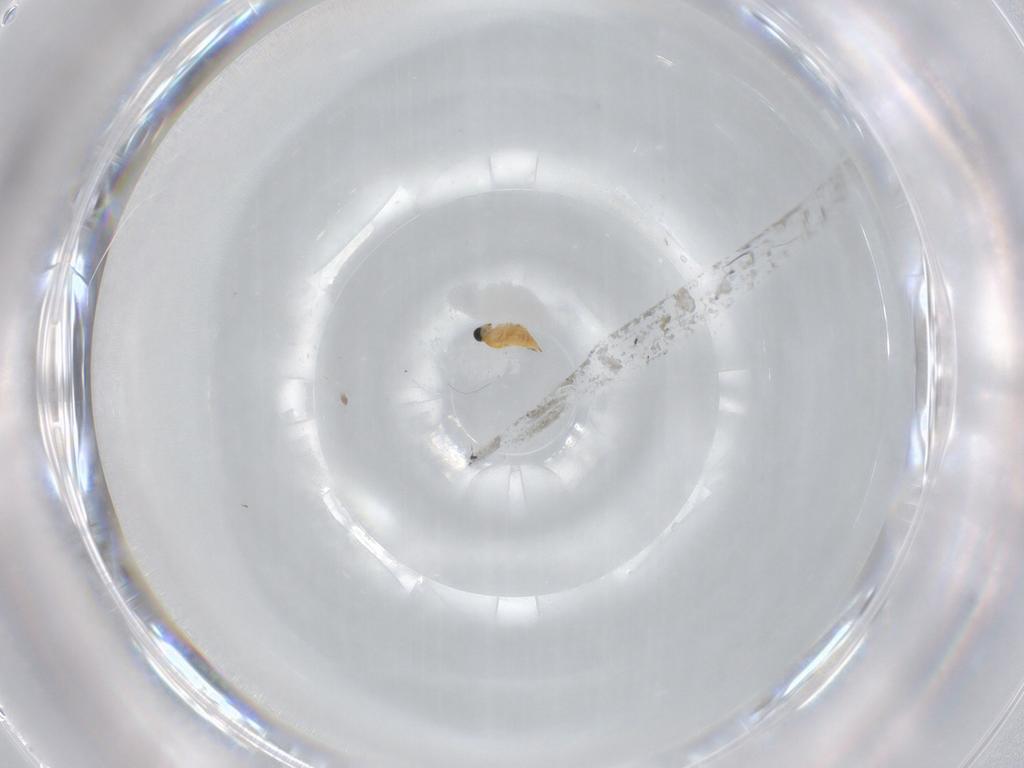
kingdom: Animalia
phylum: Arthropoda
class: Insecta
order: Hymenoptera
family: Trichogrammatidae
